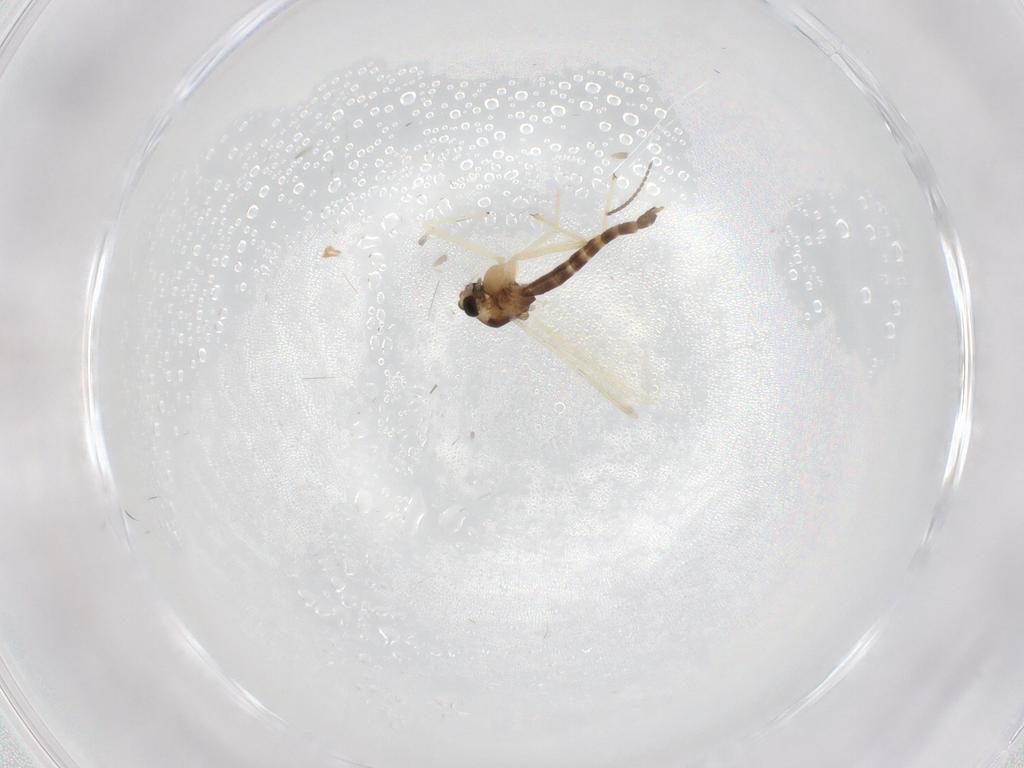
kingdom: Animalia
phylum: Arthropoda
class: Insecta
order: Diptera
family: Chironomidae
